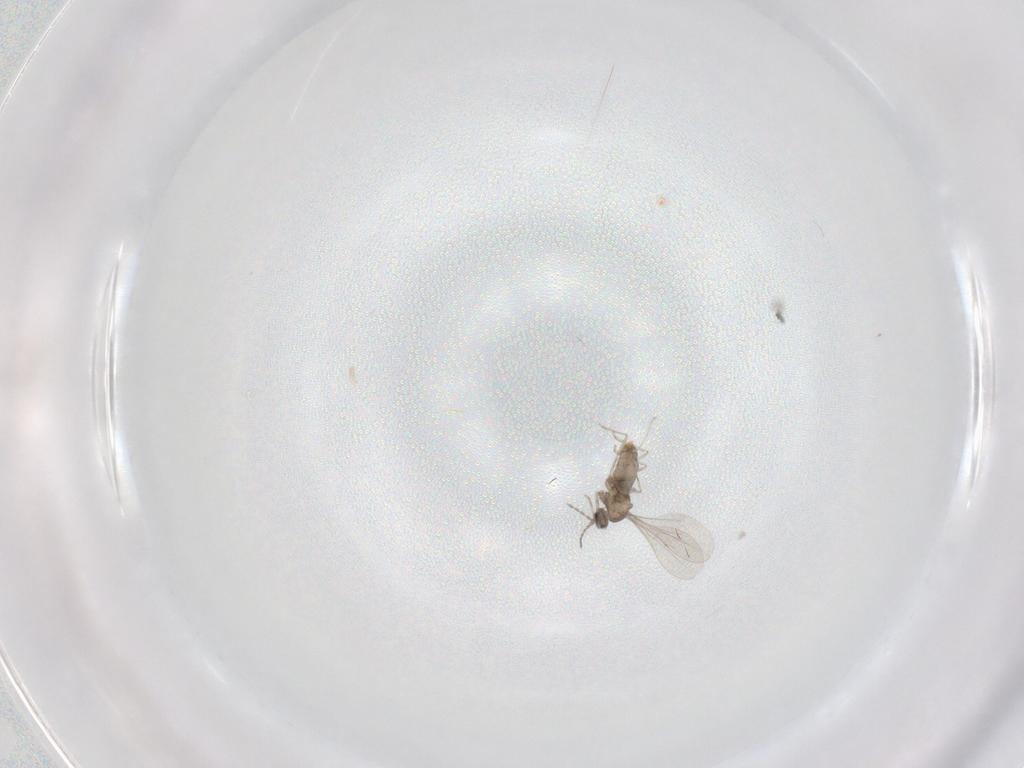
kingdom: Animalia
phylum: Arthropoda
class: Insecta
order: Diptera
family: Cecidomyiidae
